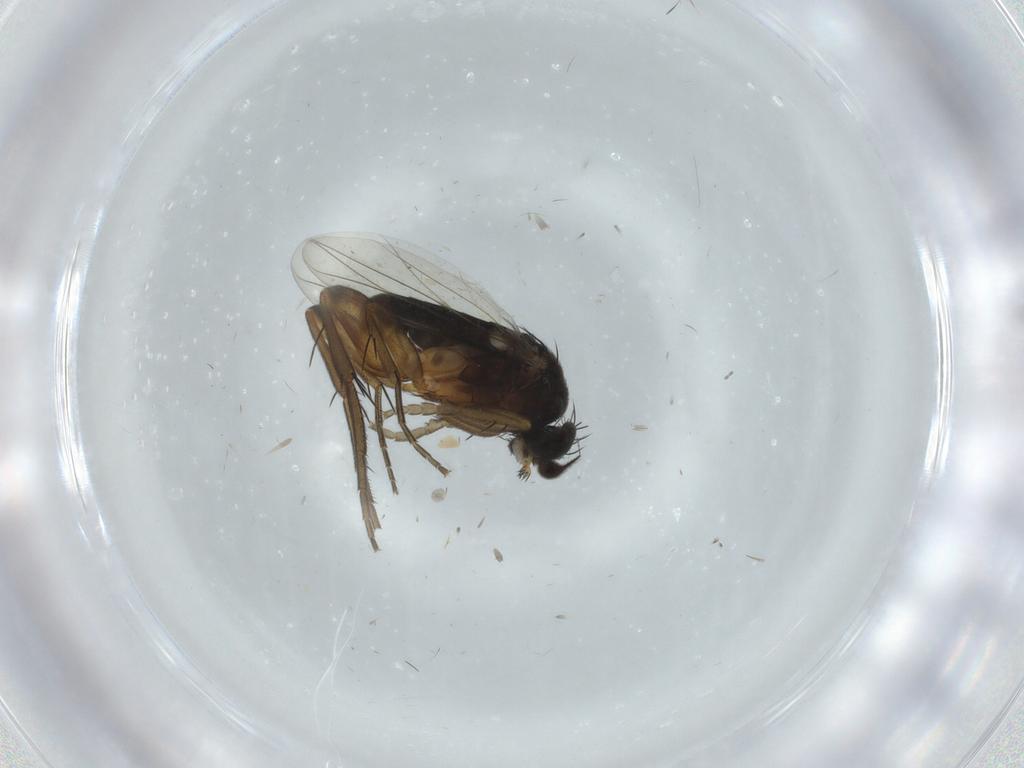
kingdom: Animalia
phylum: Arthropoda
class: Insecta
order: Diptera
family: Phoridae
